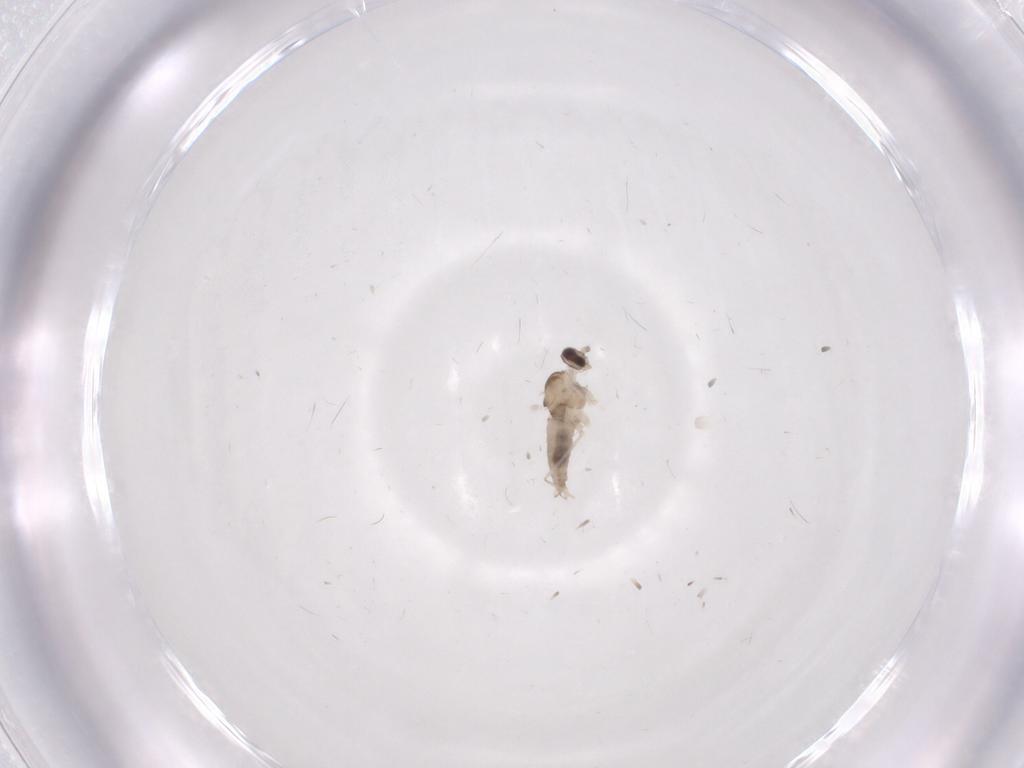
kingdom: Animalia
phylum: Arthropoda
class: Insecta
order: Diptera
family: Cecidomyiidae
